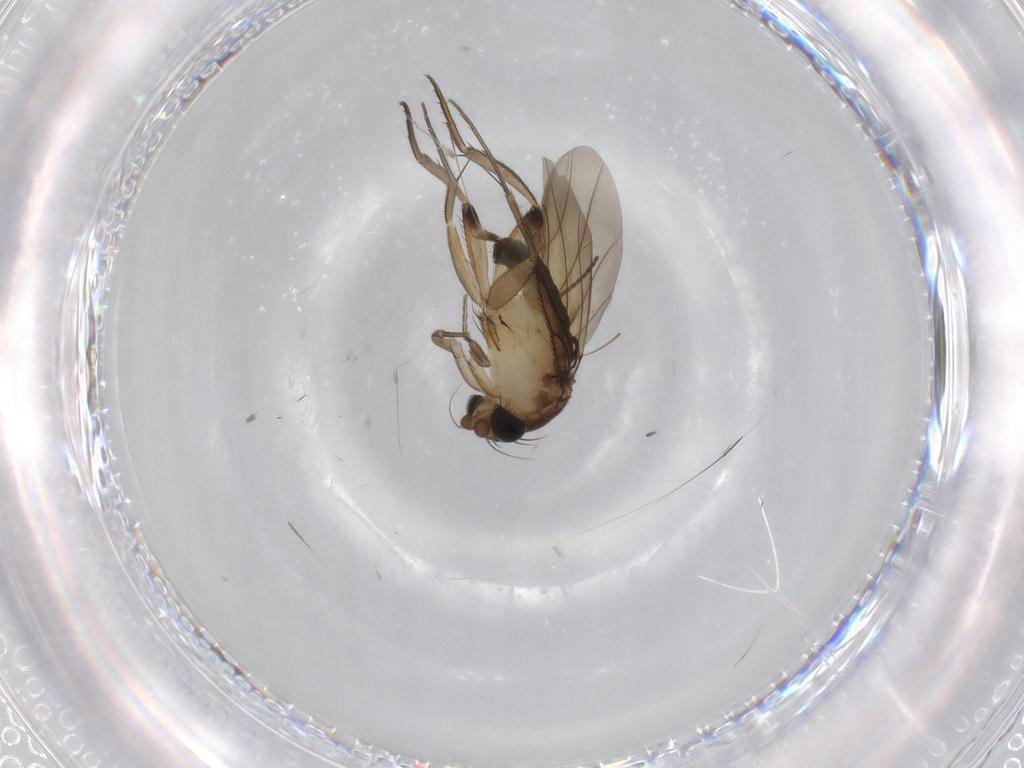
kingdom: Animalia
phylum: Arthropoda
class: Insecta
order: Diptera
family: Phoridae
